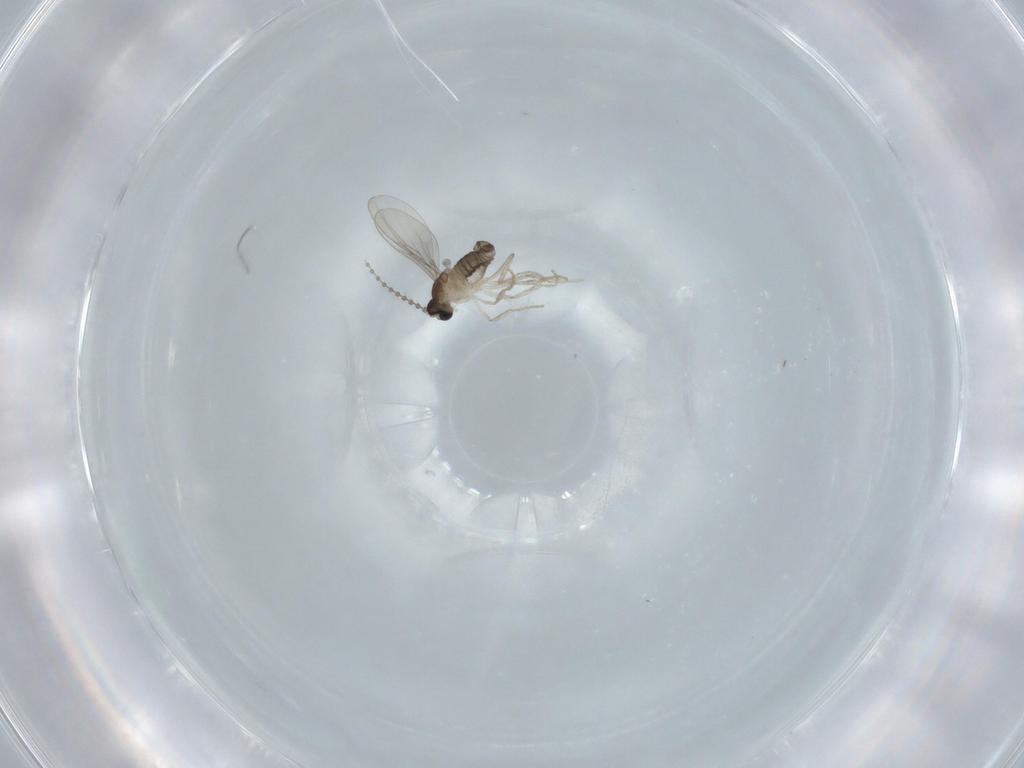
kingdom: Animalia
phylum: Arthropoda
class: Insecta
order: Diptera
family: Cecidomyiidae
